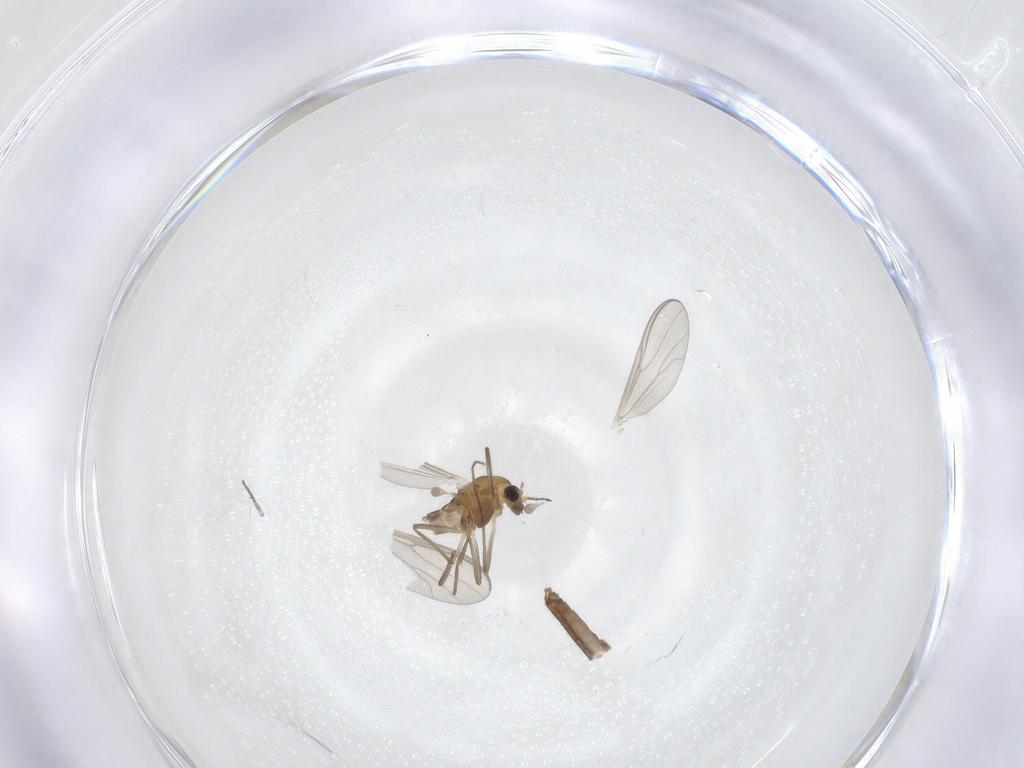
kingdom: Animalia
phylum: Arthropoda
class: Insecta
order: Diptera
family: Chironomidae
